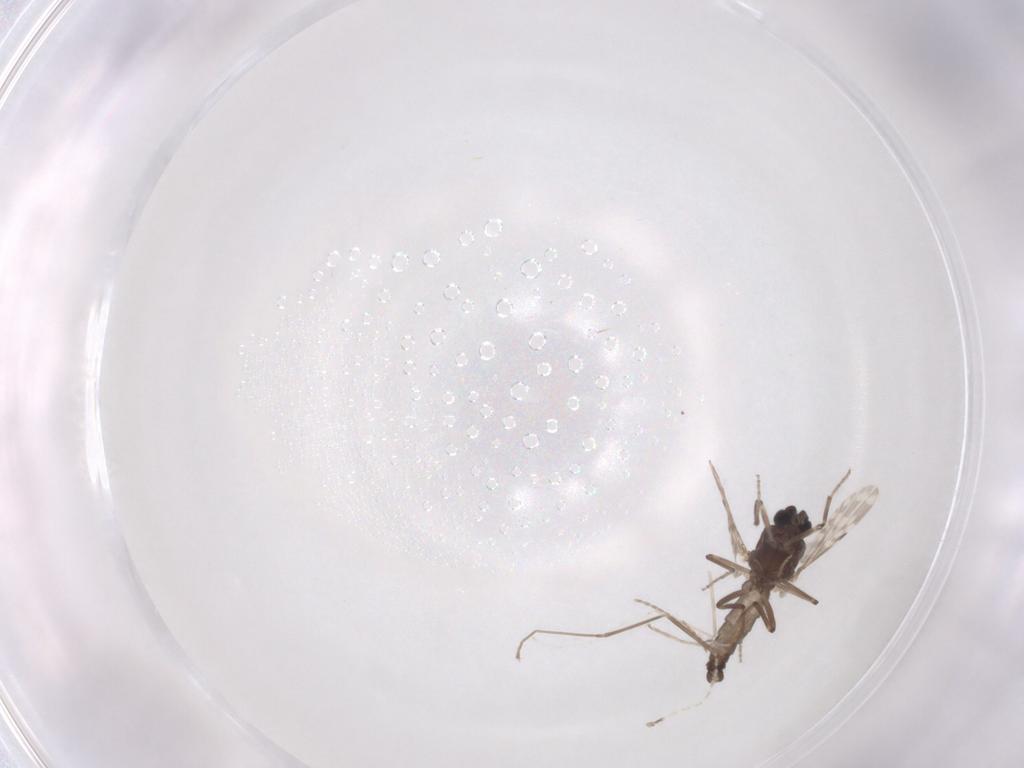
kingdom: Animalia
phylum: Arthropoda
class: Insecta
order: Diptera
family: Ceratopogonidae
